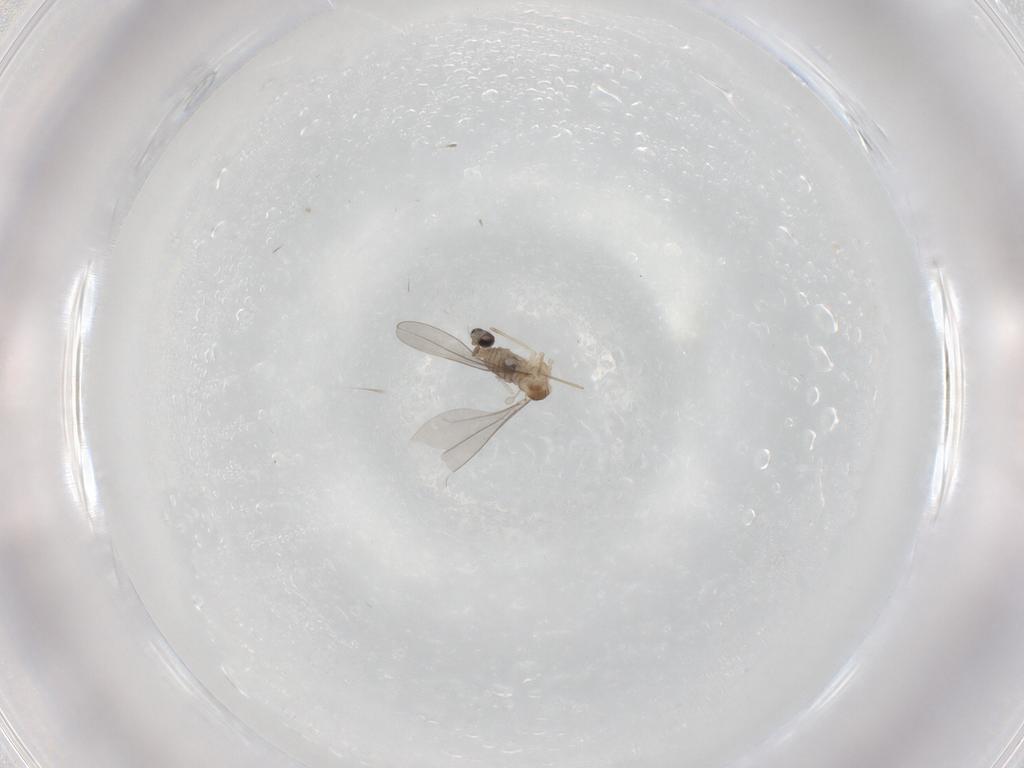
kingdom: Animalia
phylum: Arthropoda
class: Insecta
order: Diptera
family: Cecidomyiidae
